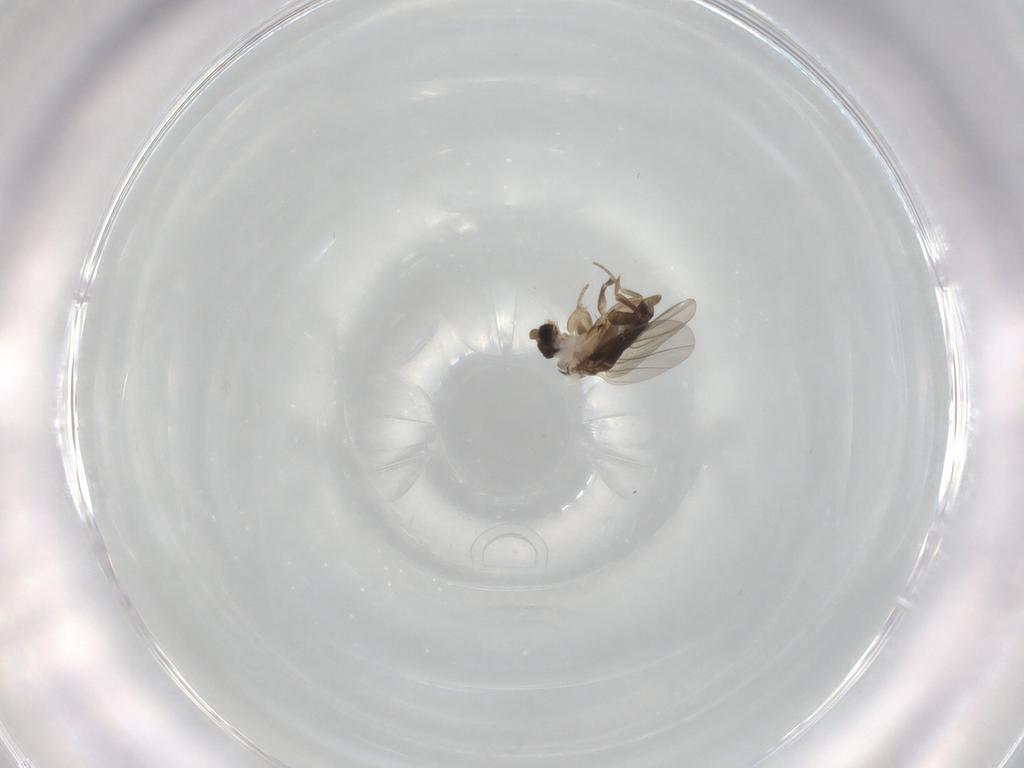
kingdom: Animalia
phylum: Arthropoda
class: Insecta
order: Diptera
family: Phoridae
